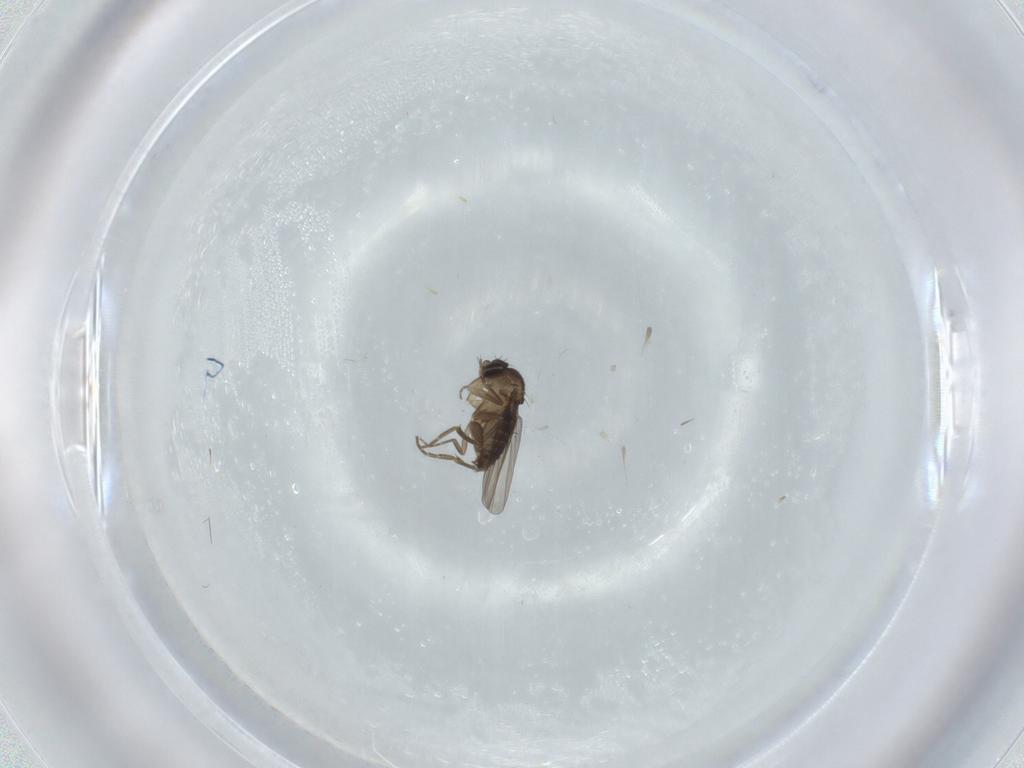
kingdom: Animalia
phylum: Arthropoda
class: Insecta
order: Diptera
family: Phoridae
